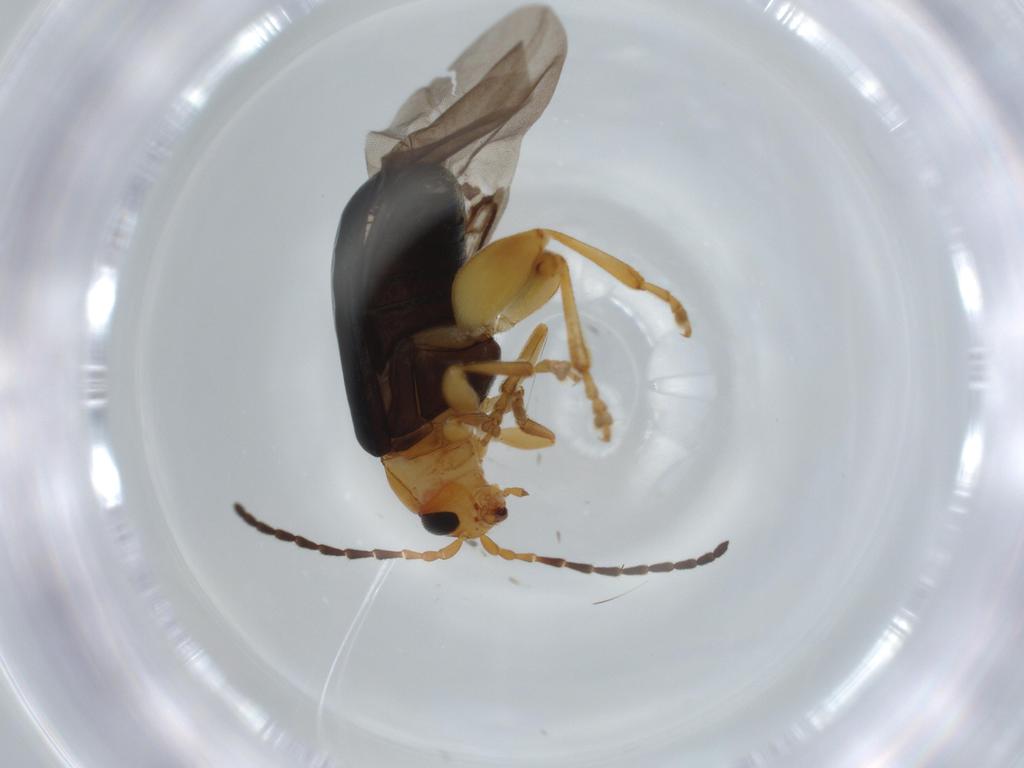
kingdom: Animalia
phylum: Arthropoda
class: Insecta
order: Coleoptera
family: Chrysomelidae
